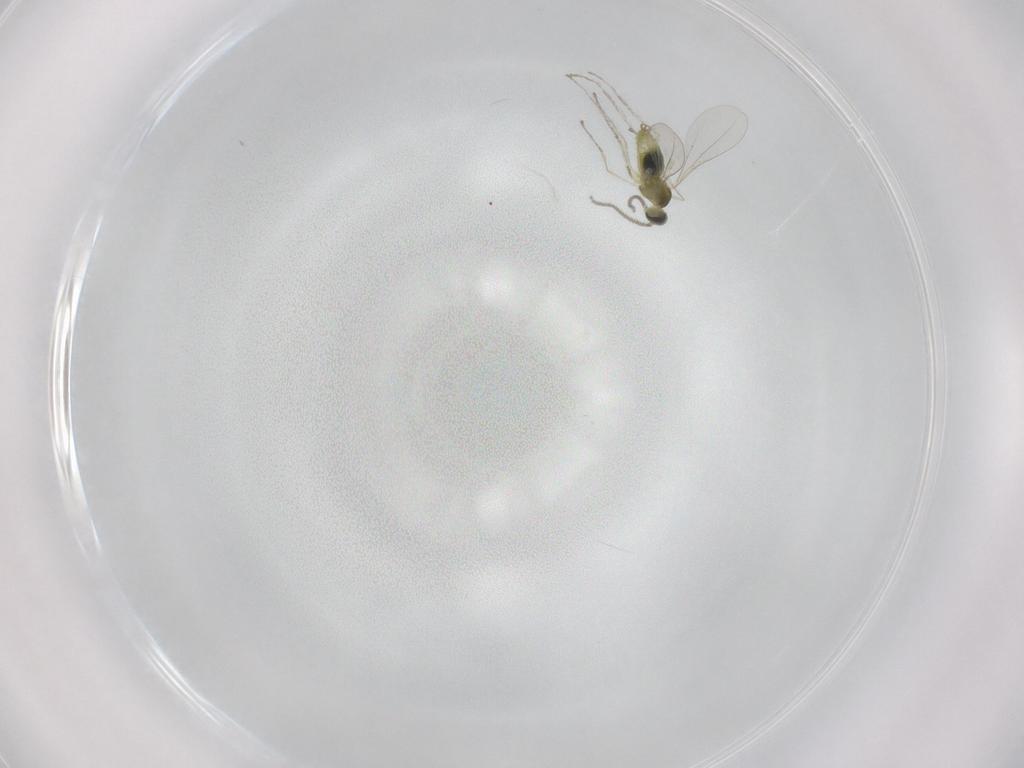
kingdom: Animalia
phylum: Arthropoda
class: Insecta
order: Diptera
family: Cecidomyiidae
